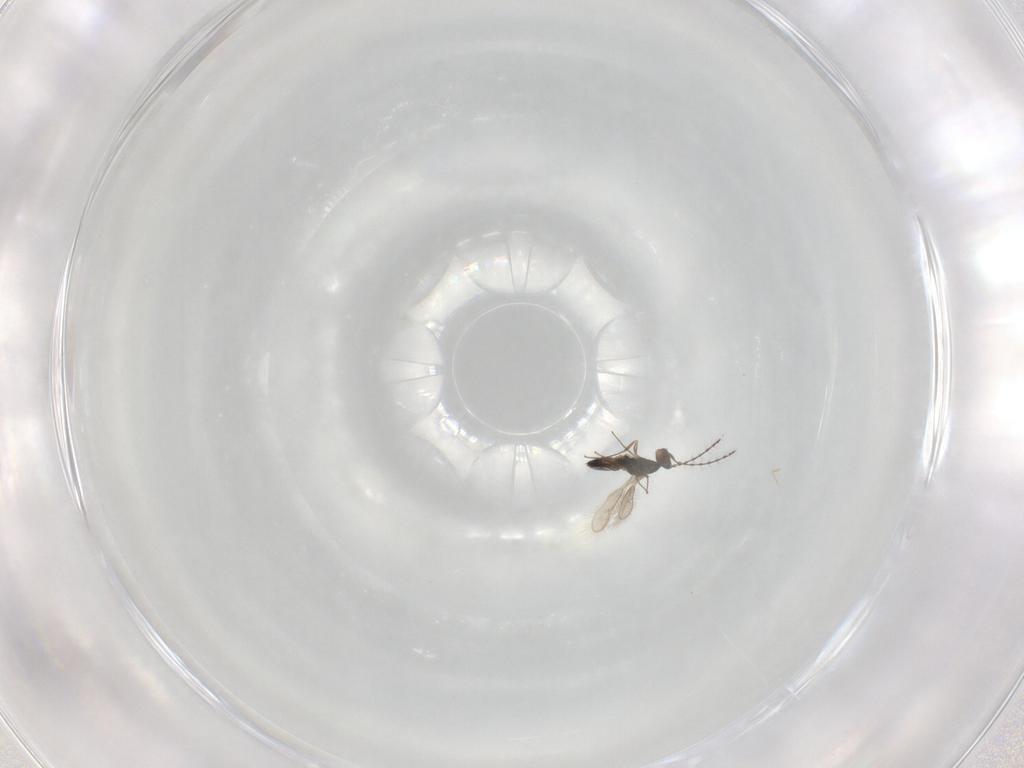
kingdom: Animalia
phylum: Arthropoda
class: Insecta
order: Hymenoptera
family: Pteromalidae
